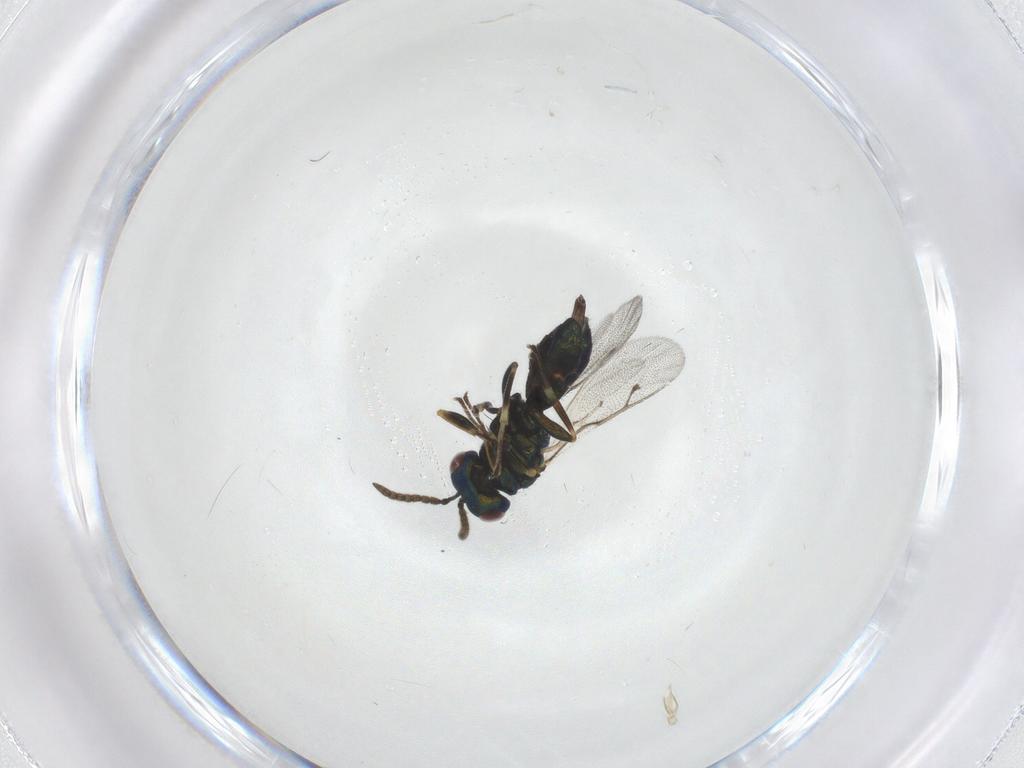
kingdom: Animalia
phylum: Arthropoda
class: Insecta
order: Hymenoptera
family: Pteromalidae
